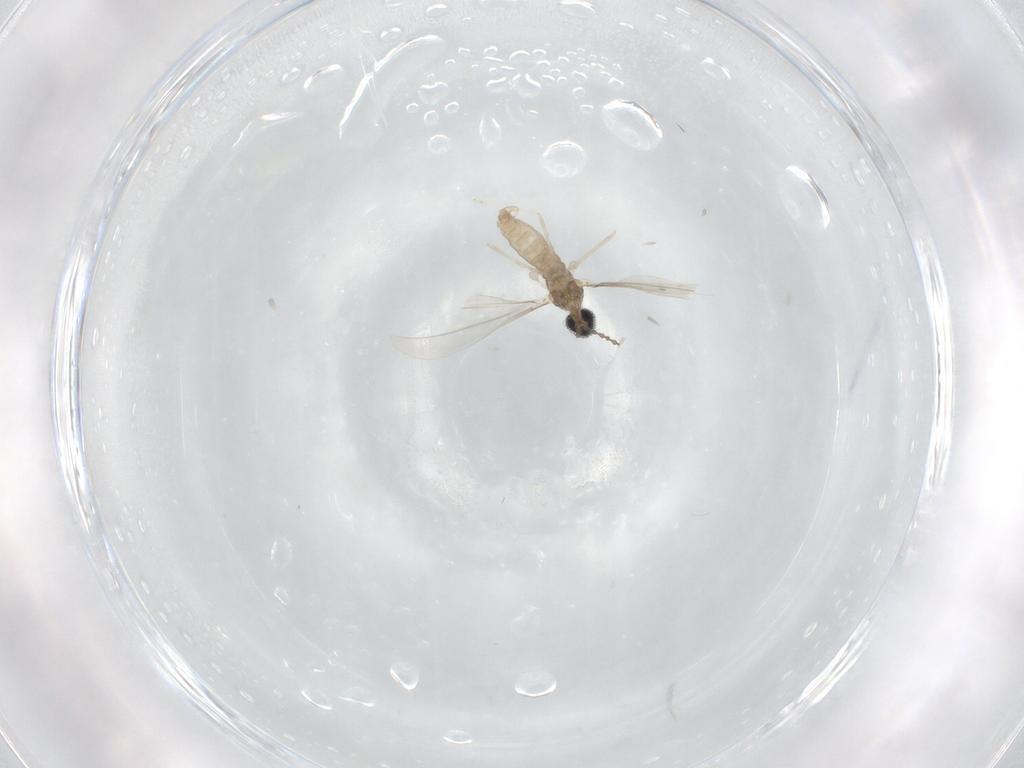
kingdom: Animalia
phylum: Arthropoda
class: Insecta
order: Diptera
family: Cecidomyiidae
